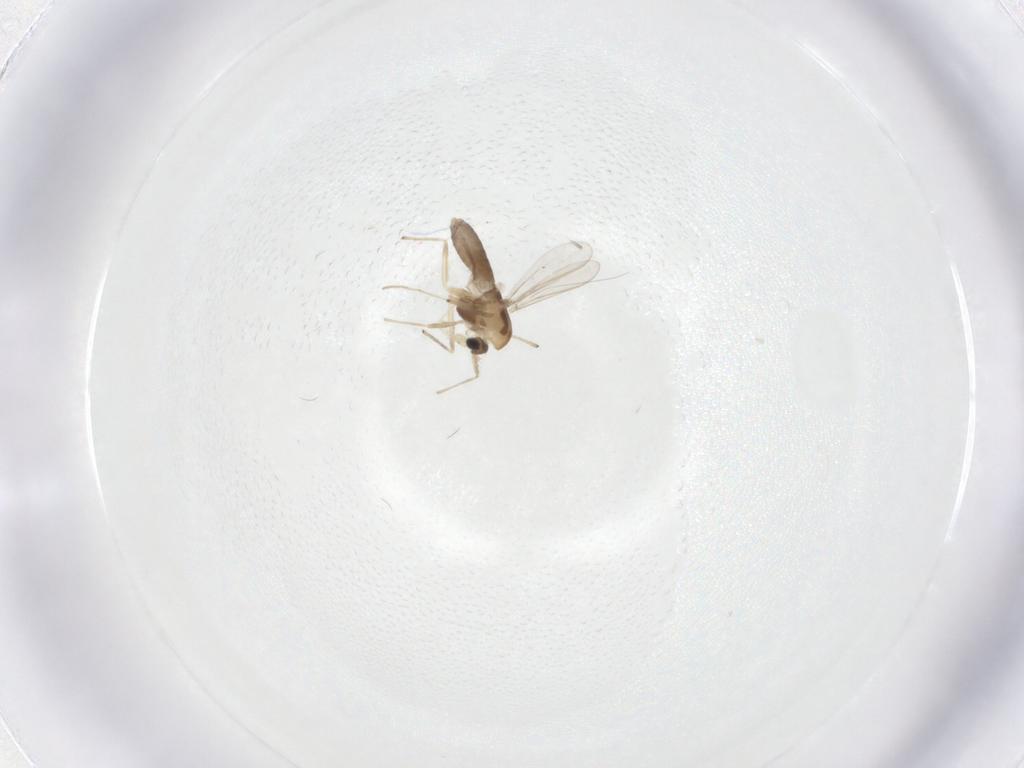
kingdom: Animalia
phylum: Arthropoda
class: Insecta
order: Diptera
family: Chironomidae
